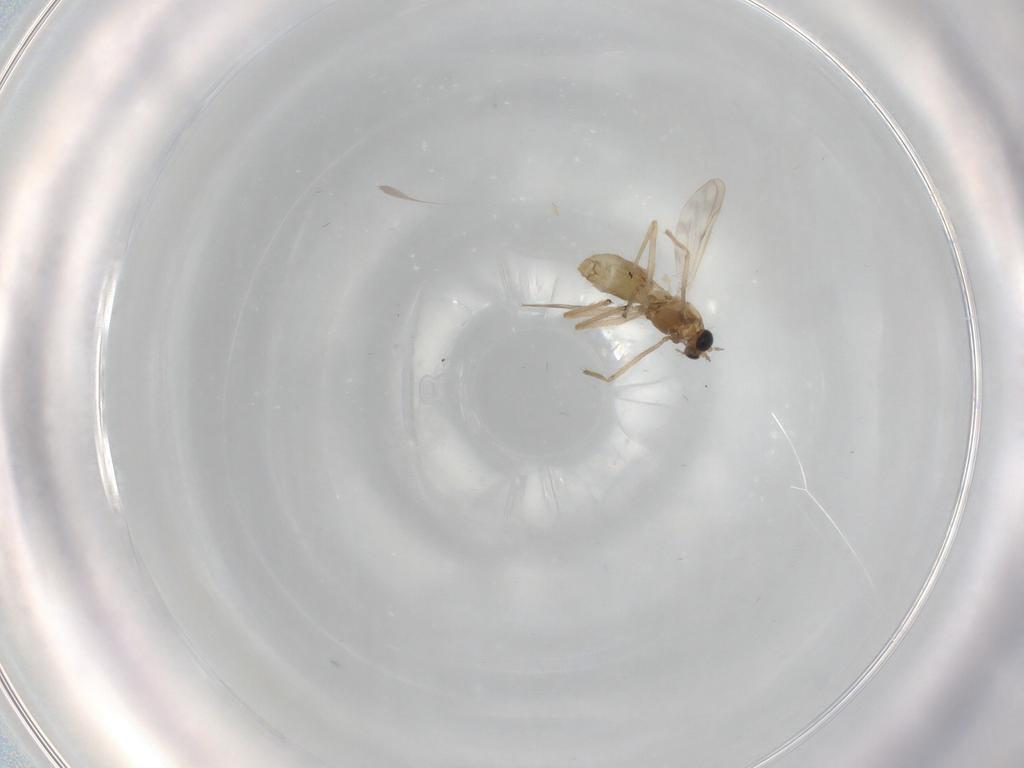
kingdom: Animalia
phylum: Arthropoda
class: Insecta
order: Diptera
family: Chironomidae
